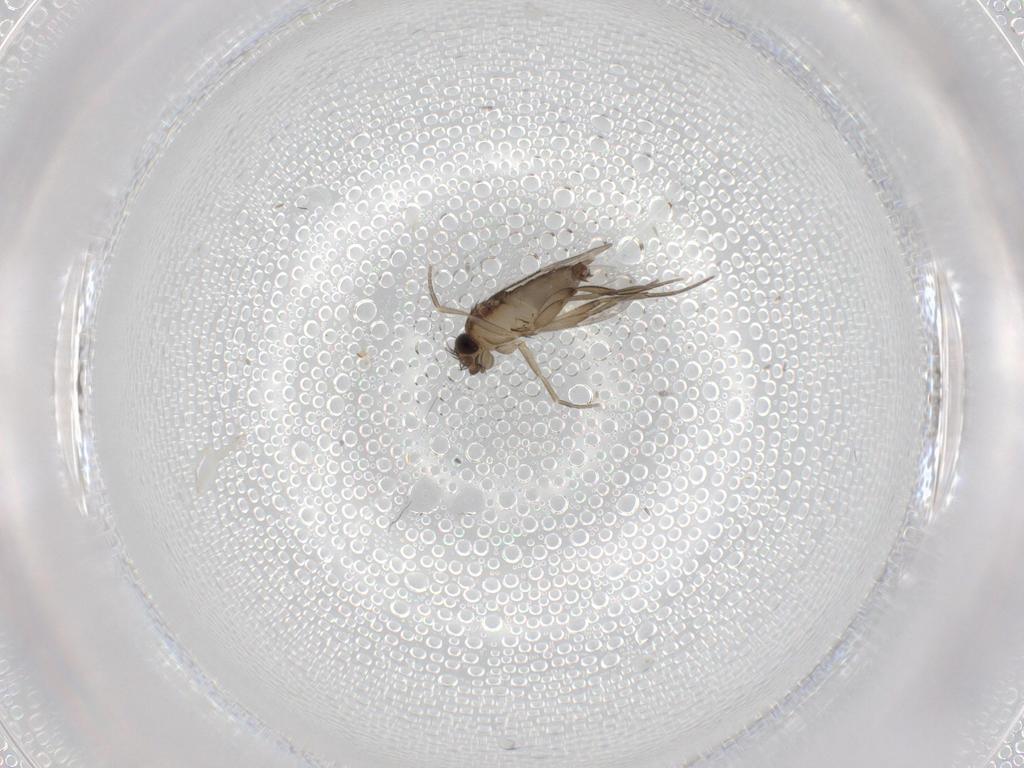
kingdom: Animalia
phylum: Arthropoda
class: Insecta
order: Diptera
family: Phoridae
